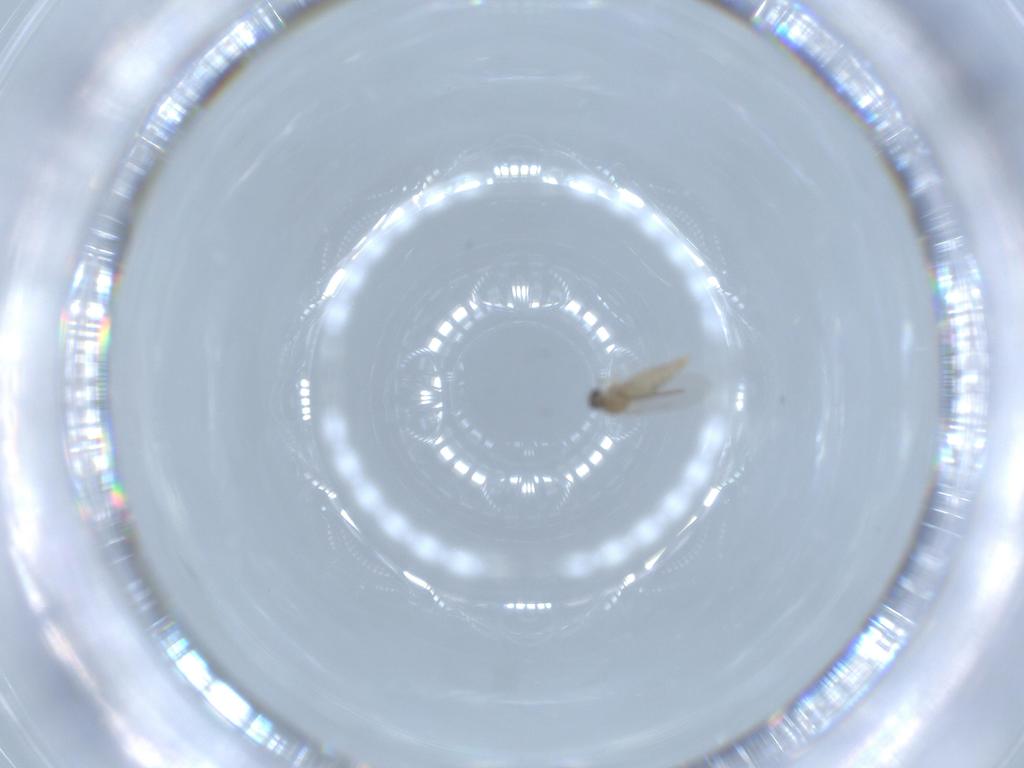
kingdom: Animalia
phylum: Arthropoda
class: Insecta
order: Diptera
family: Cecidomyiidae
